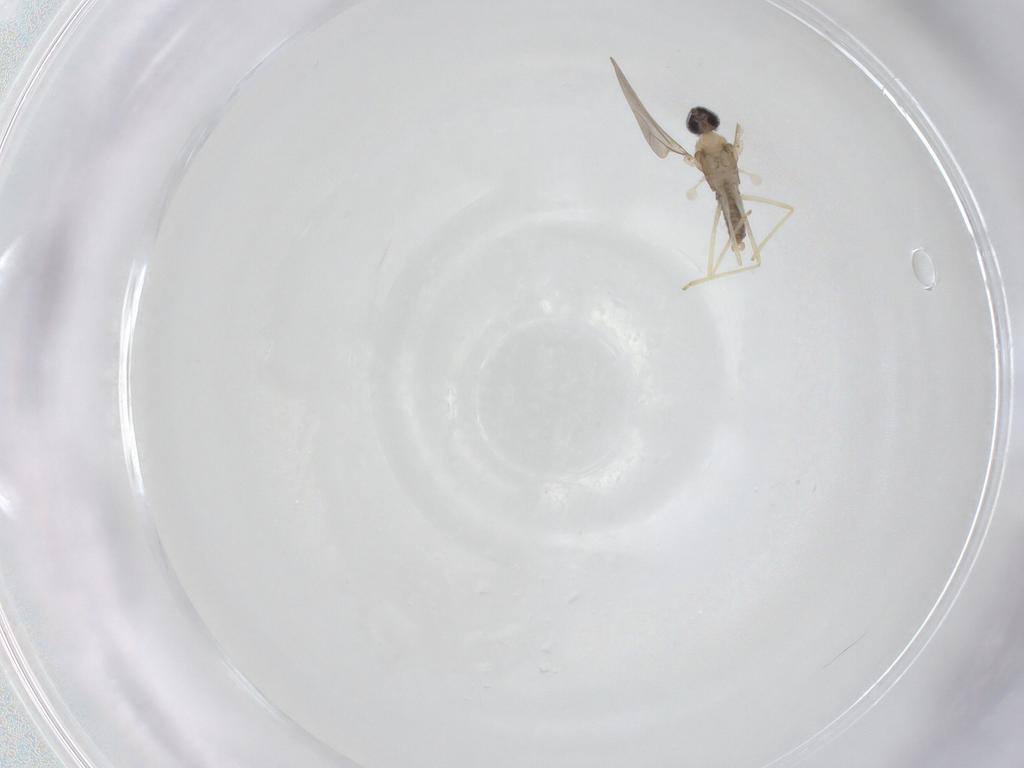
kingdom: Animalia
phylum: Arthropoda
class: Insecta
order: Diptera
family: Cecidomyiidae
